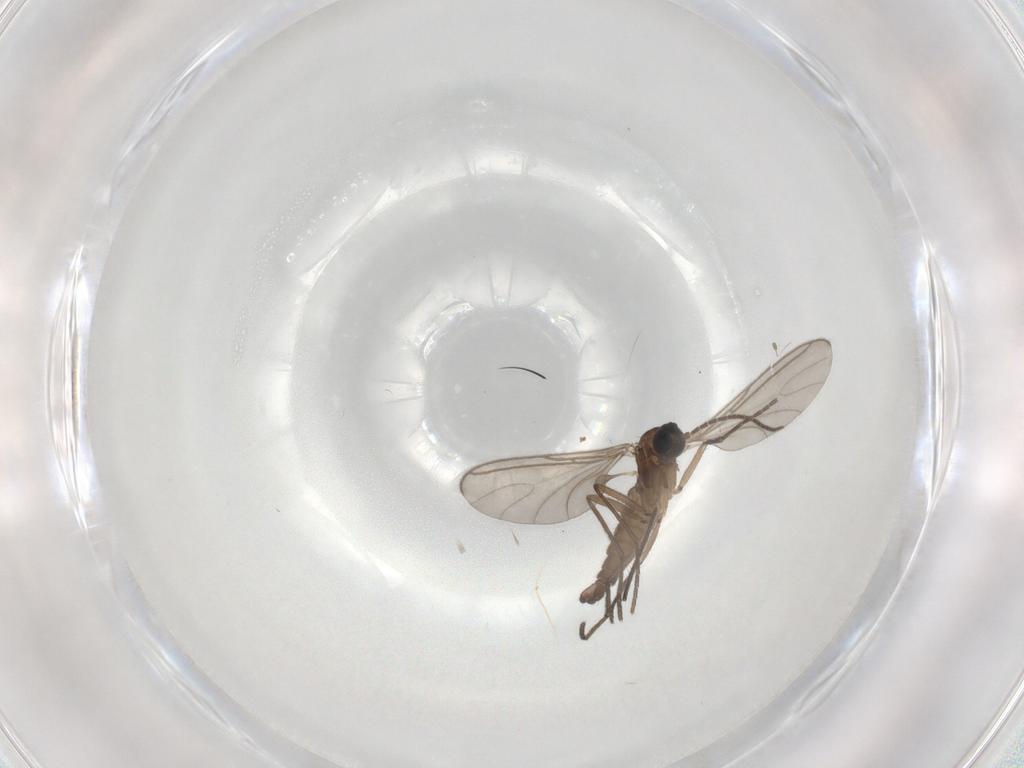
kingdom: Animalia
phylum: Arthropoda
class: Insecta
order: Diptera
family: Sciaridae
